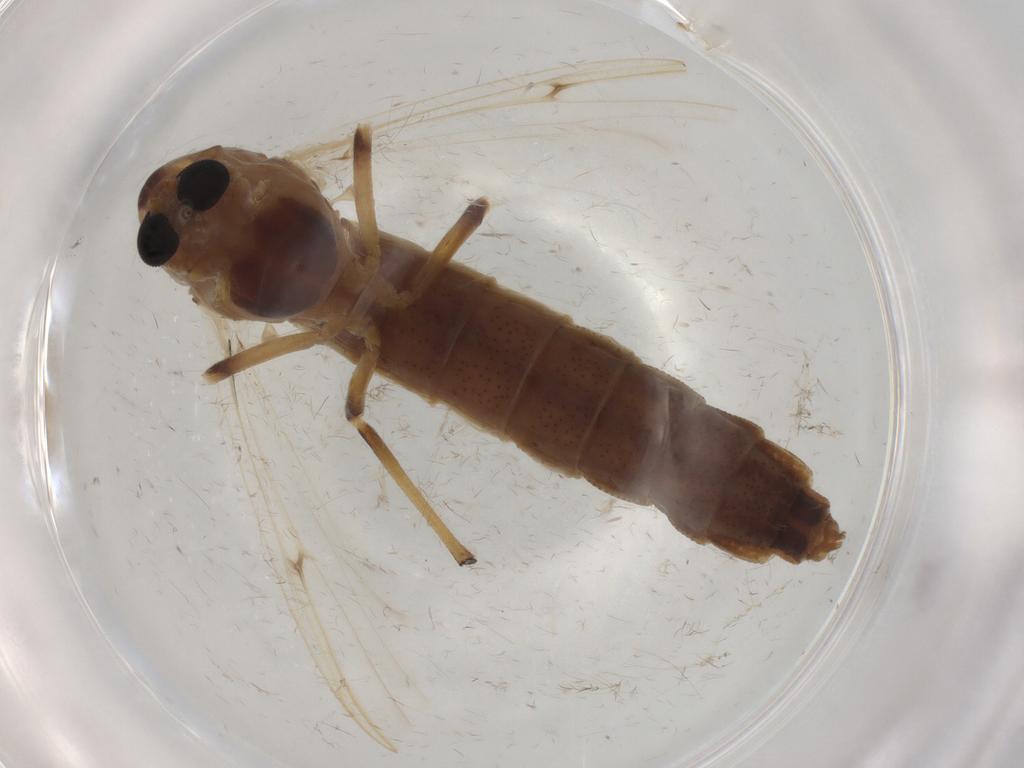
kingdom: Animalia
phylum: Arthropoda
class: Insecta
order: Diptera
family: Chironomidae
